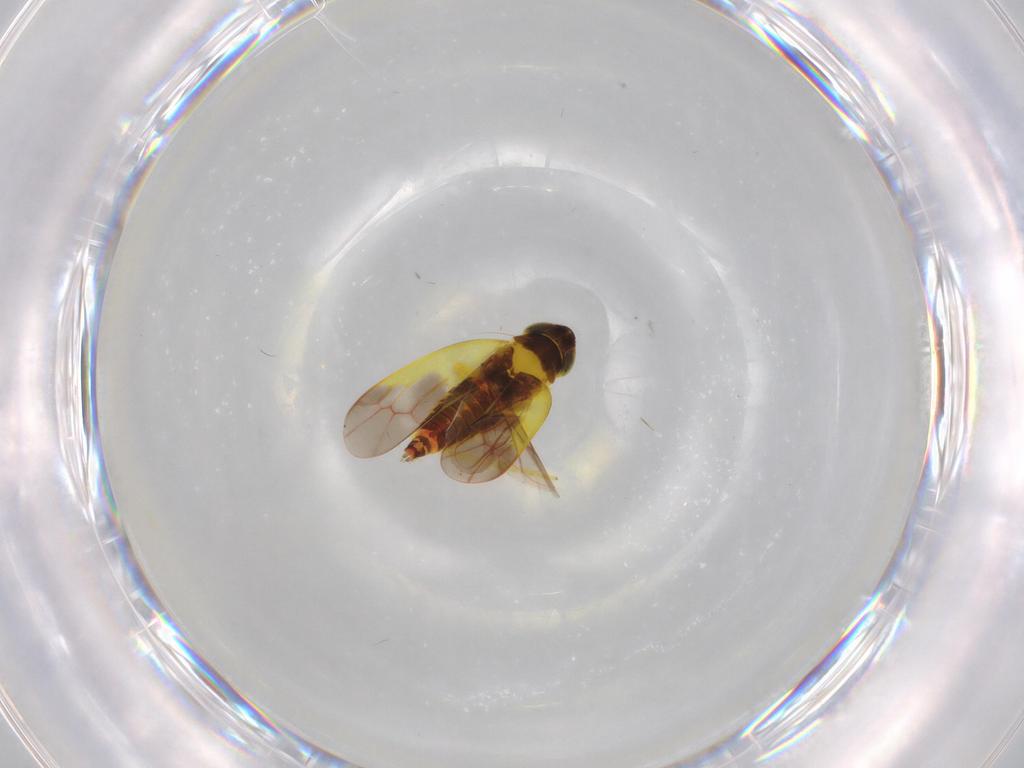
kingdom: Animalia
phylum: Arthropoda
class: Insecta
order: Hemiptera
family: Cicadellidae
